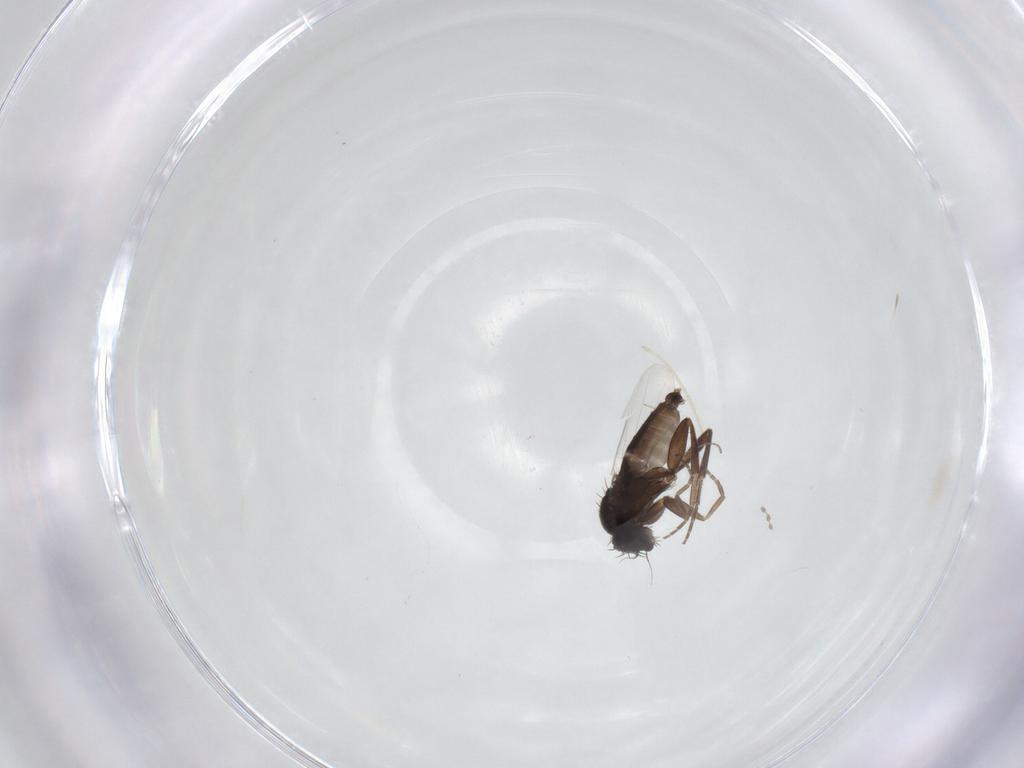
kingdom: Animalia
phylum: Arthropoda
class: Insecta
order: Diptera
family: Phoridae
